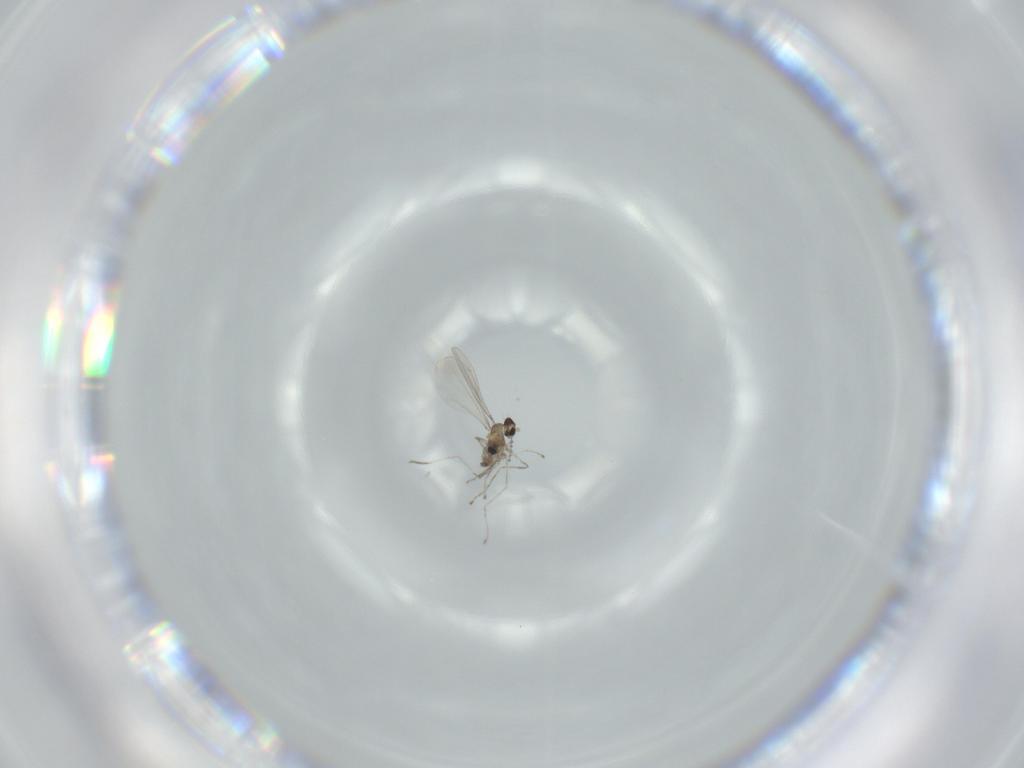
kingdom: Animalia
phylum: Arthropoda
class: Insecta
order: Diptera
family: Cecidomyiidae
